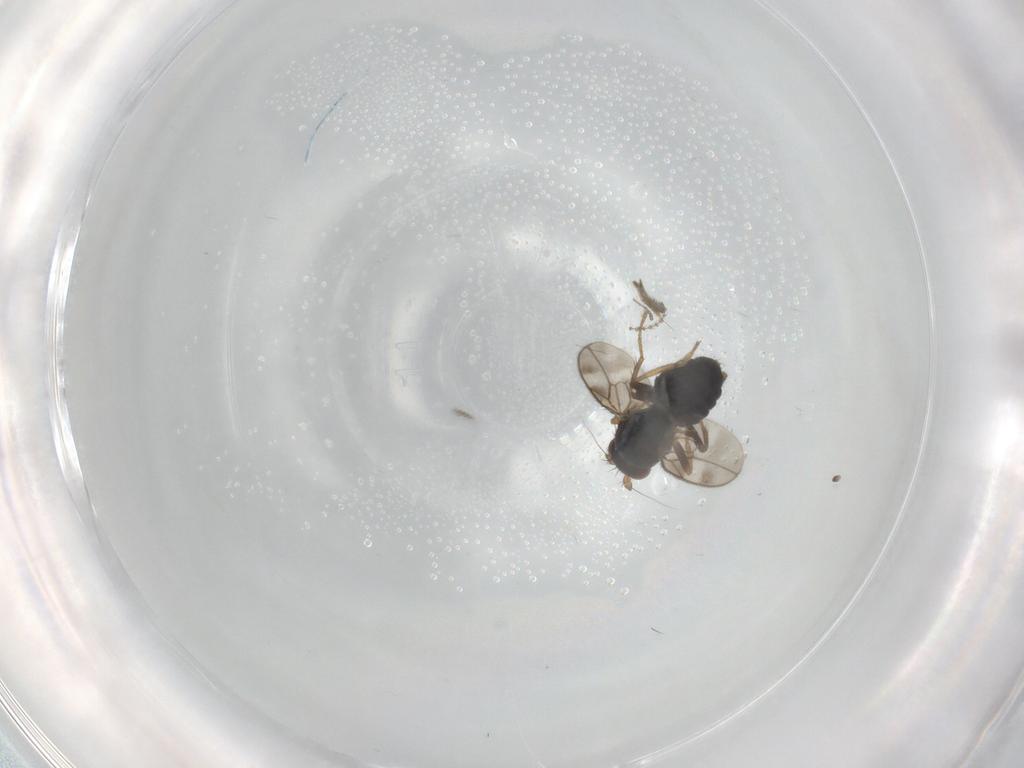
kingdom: Animalia
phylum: Arthropoda
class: Insecta
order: Diptera
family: Sphaeroceridae
